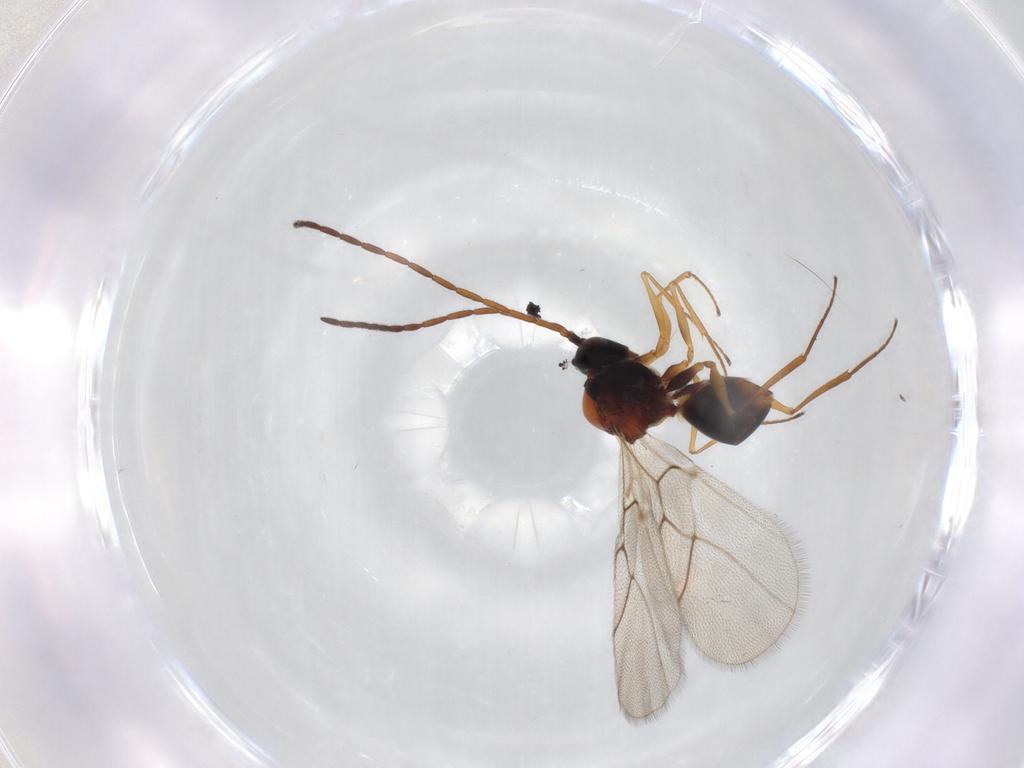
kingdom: Animalia
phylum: Arthropoda
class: Insecta
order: Hymenoptera
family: Figitidae
